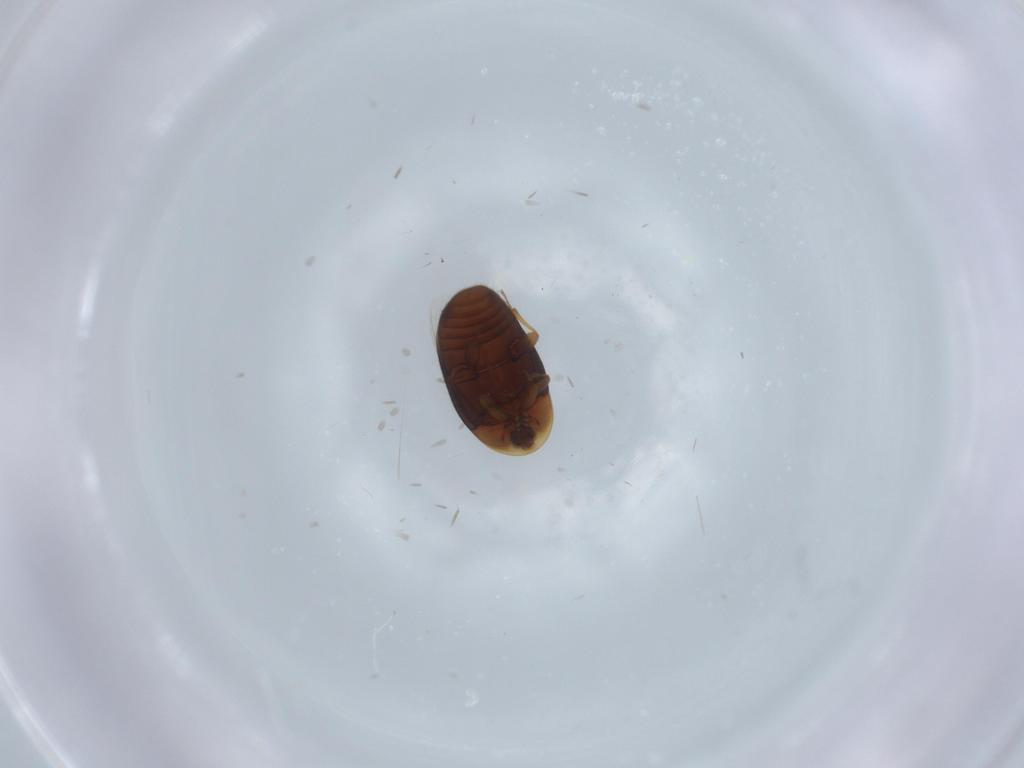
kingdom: Animalia
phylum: Arthropoda
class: Insecta
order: Coleoptera
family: Corylophidae
